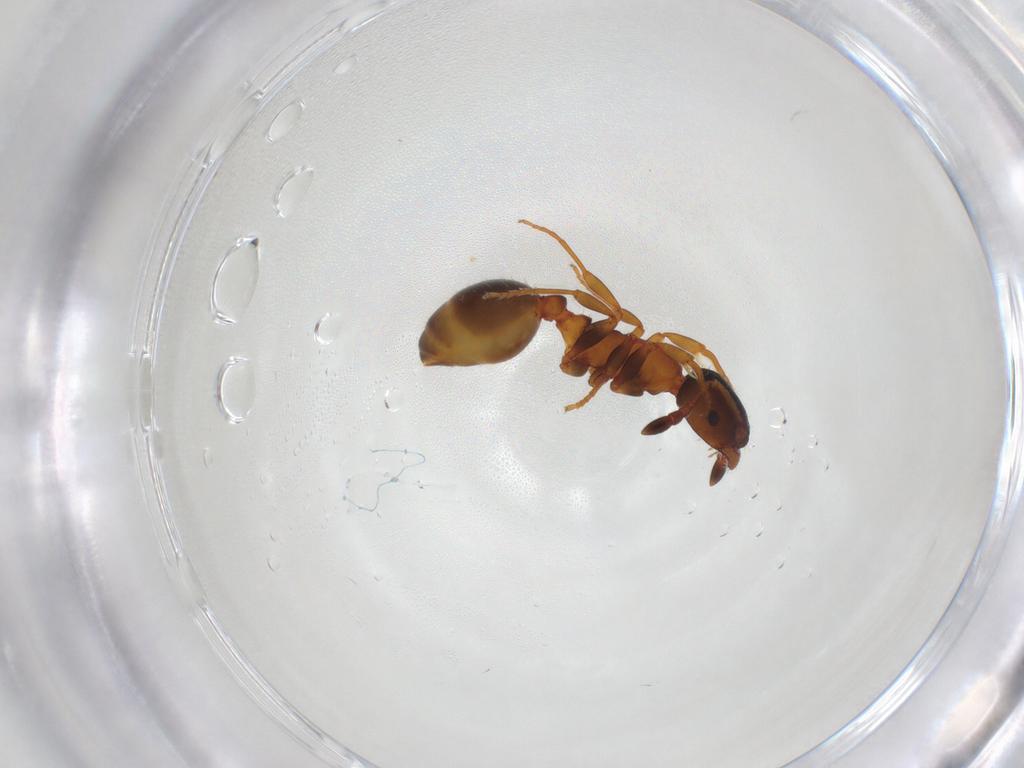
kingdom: Animalia
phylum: Arthropoda
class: Insecta
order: Hymenoptera
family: Formicidae
